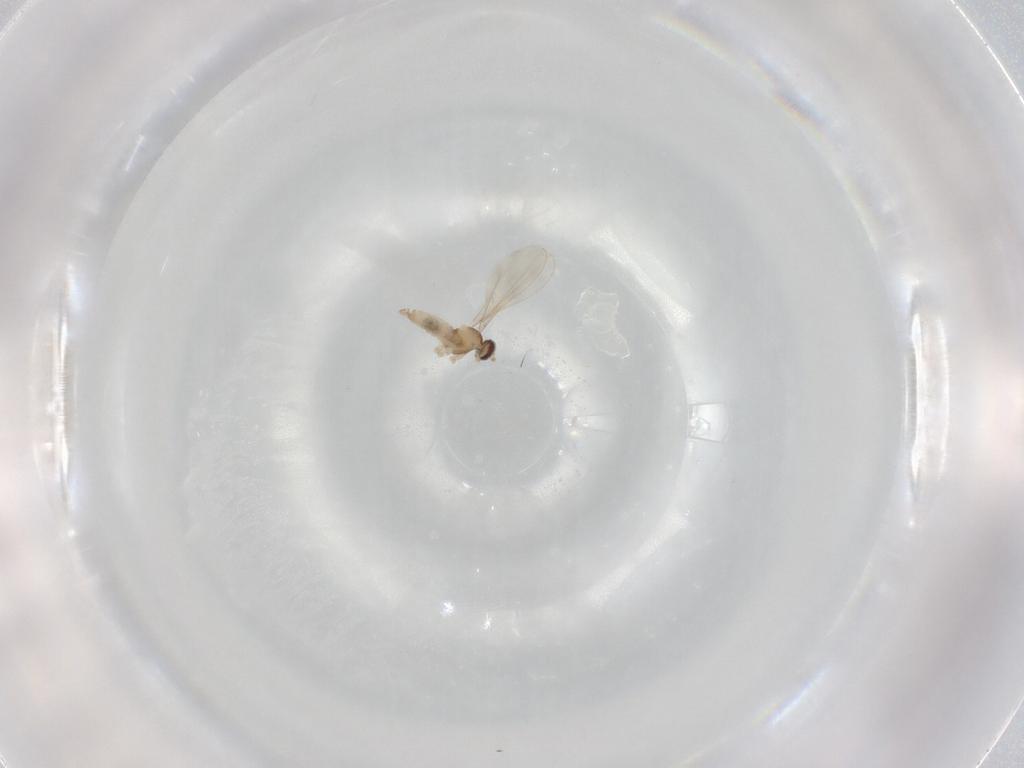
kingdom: Animalia
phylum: Arthropoda
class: Insecta
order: Diptera
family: Cecidomyiidae
